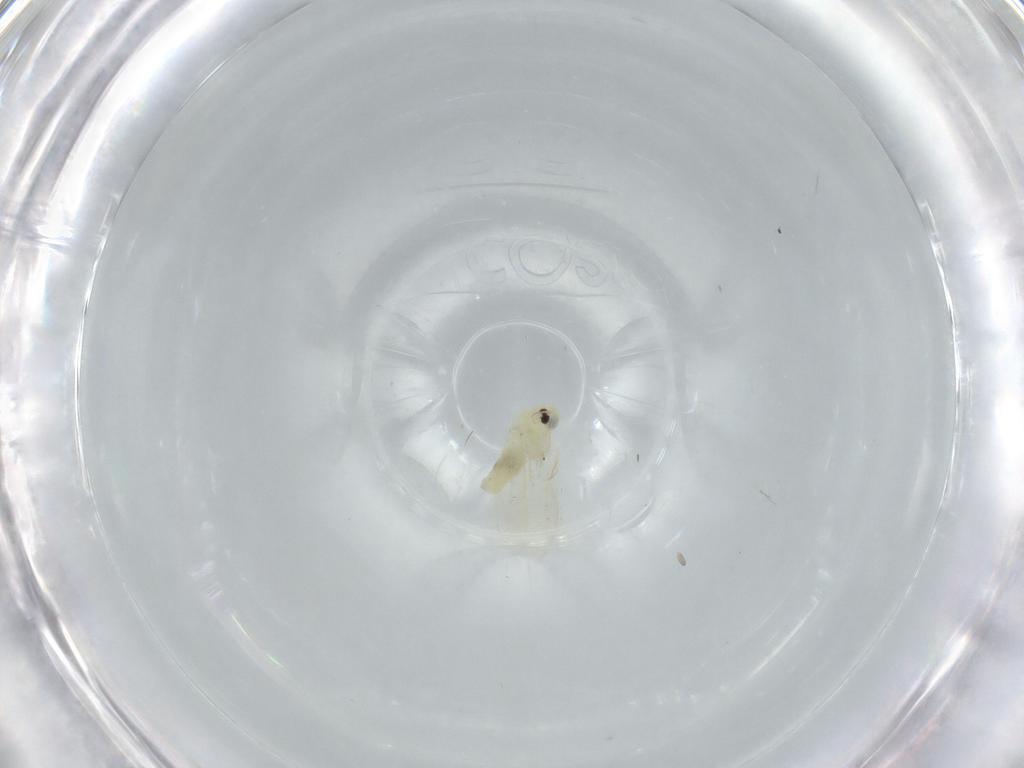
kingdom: Animalia
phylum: Arthropoda
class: Insecta
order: Hemiptera
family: Aleyrodidae
